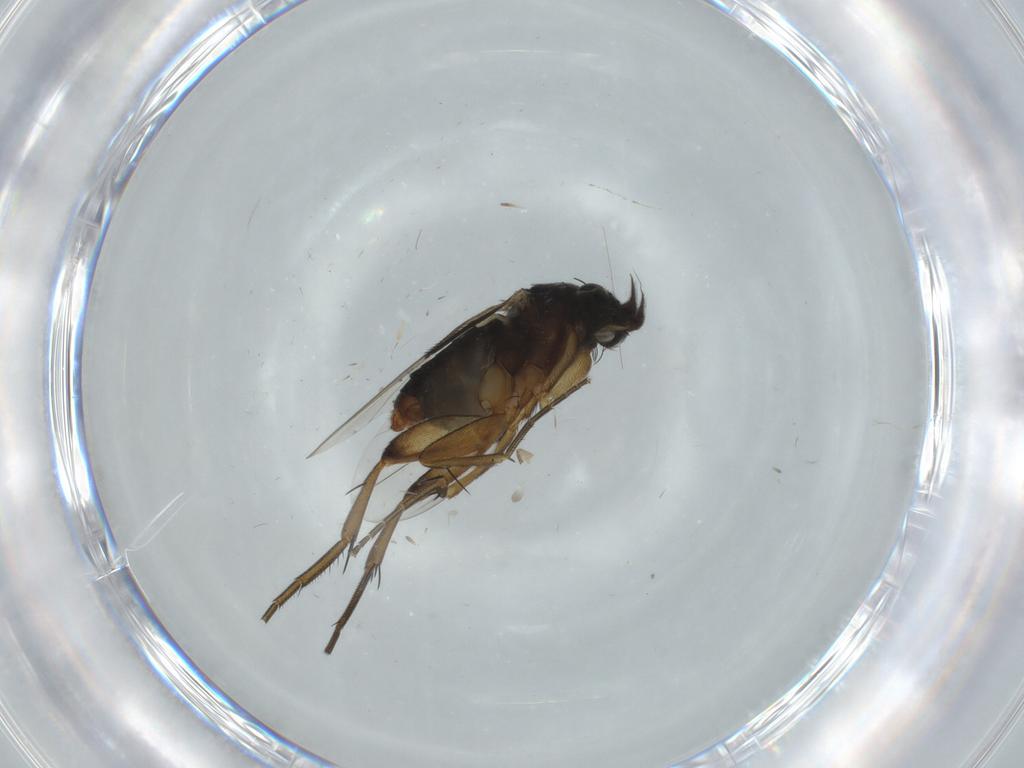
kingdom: Animalia
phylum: Arthropoda
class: Insecta
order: Diptera
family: Phoridae
